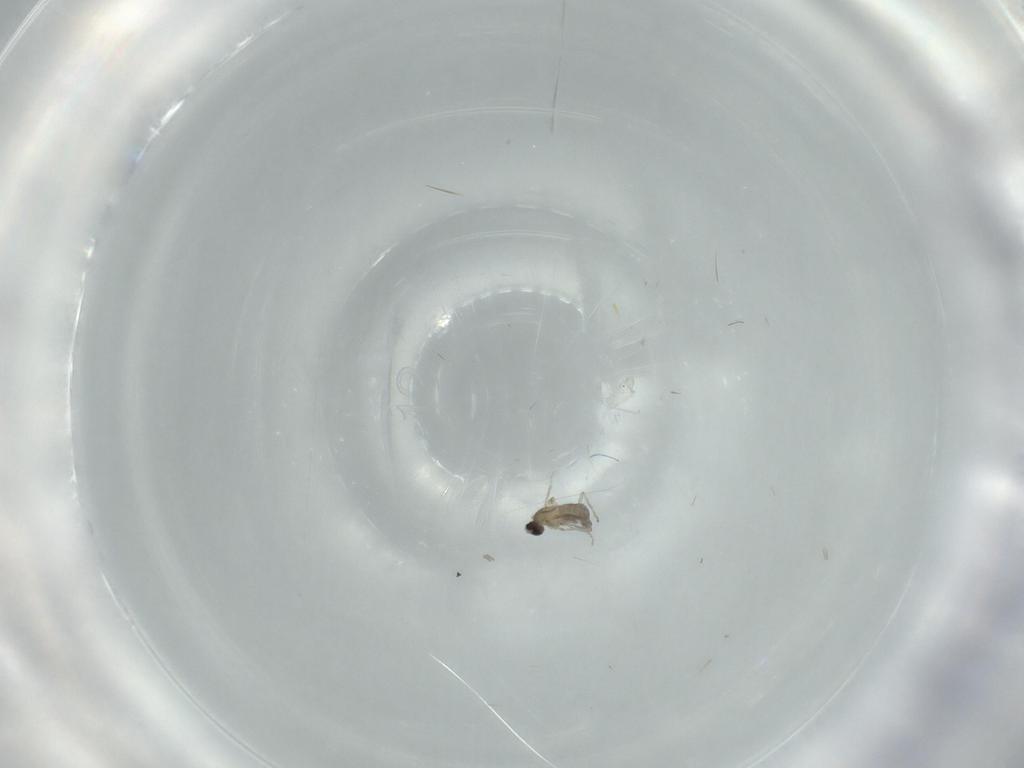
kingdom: Animalia
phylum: Arthropoda
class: Insecta
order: Diptera
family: Cecidomyiidae
